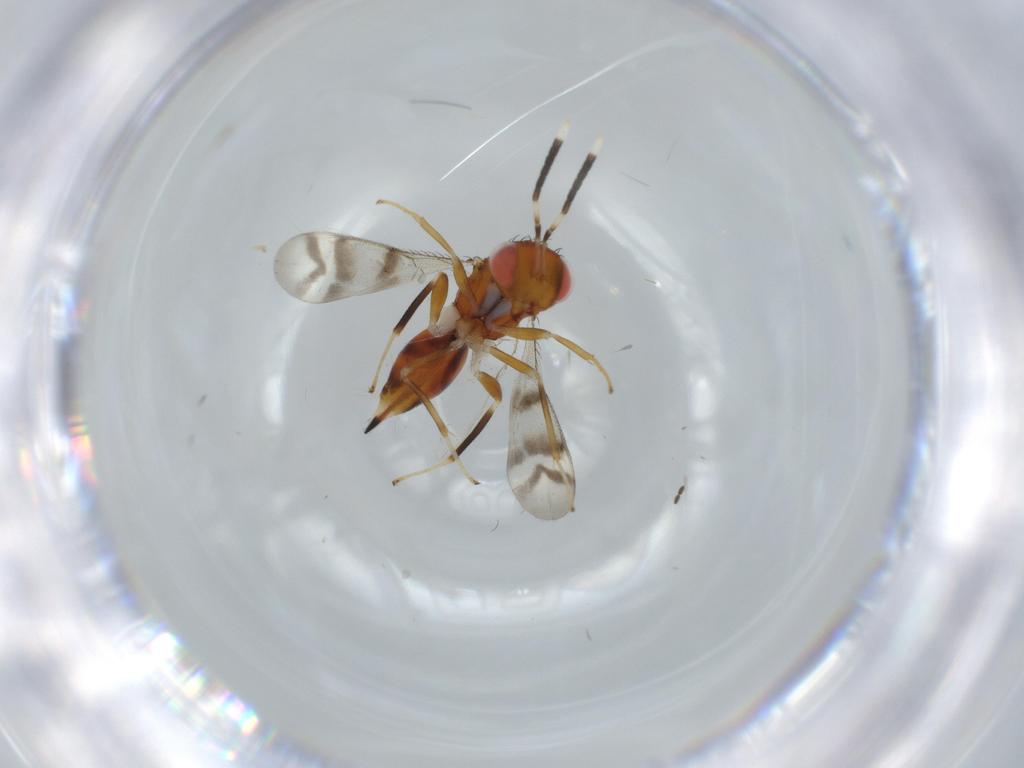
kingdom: Animalia
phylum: Arthropoda
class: Insecta
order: Hymenoptera
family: Diparidae
